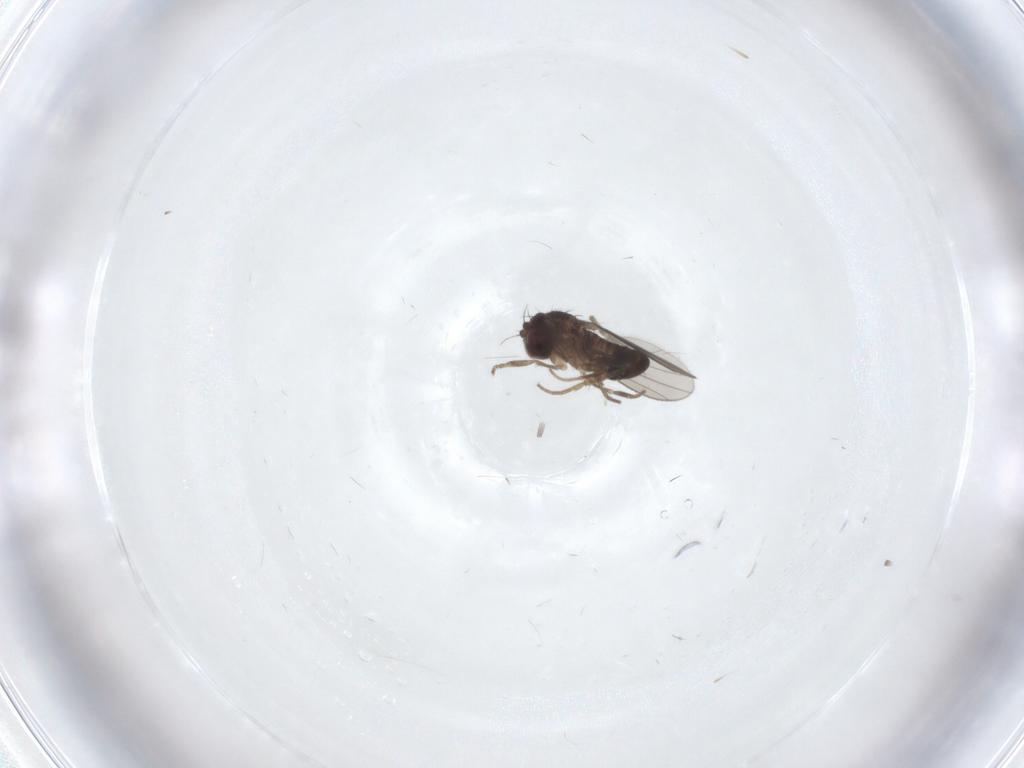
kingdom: Animalia
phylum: Arthropoda
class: Insecta
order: Diptera
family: Psychodidae
